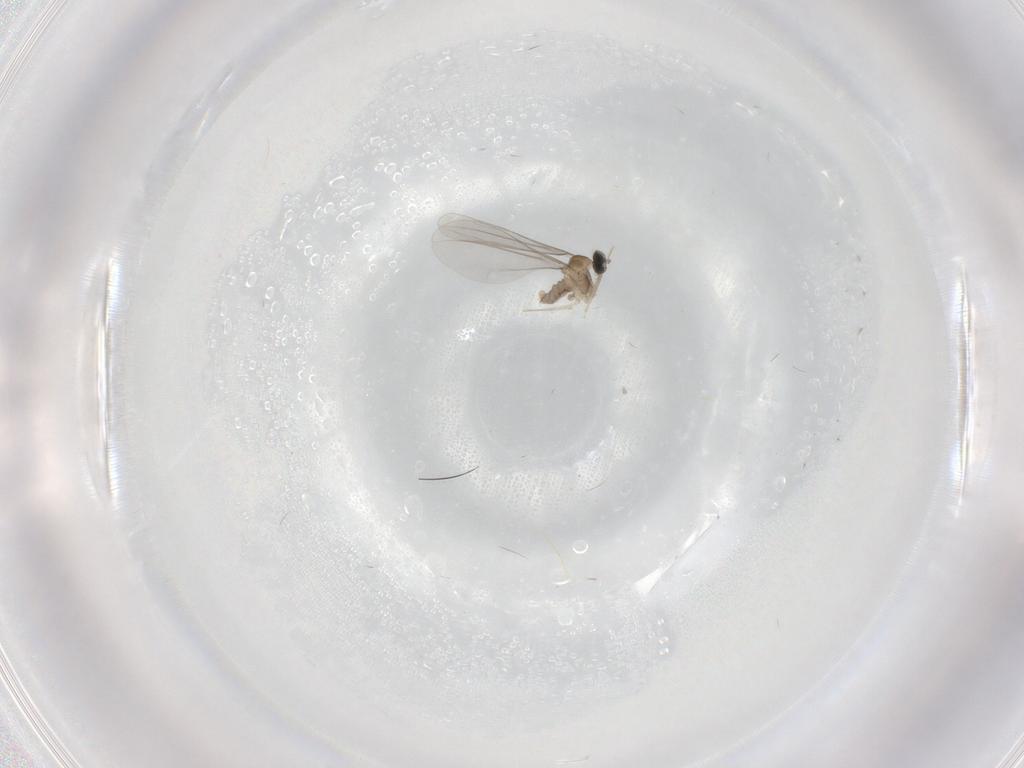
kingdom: Animalia
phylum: Arthropoda
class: Insecta
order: Diptera
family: Cecidomyiidae
